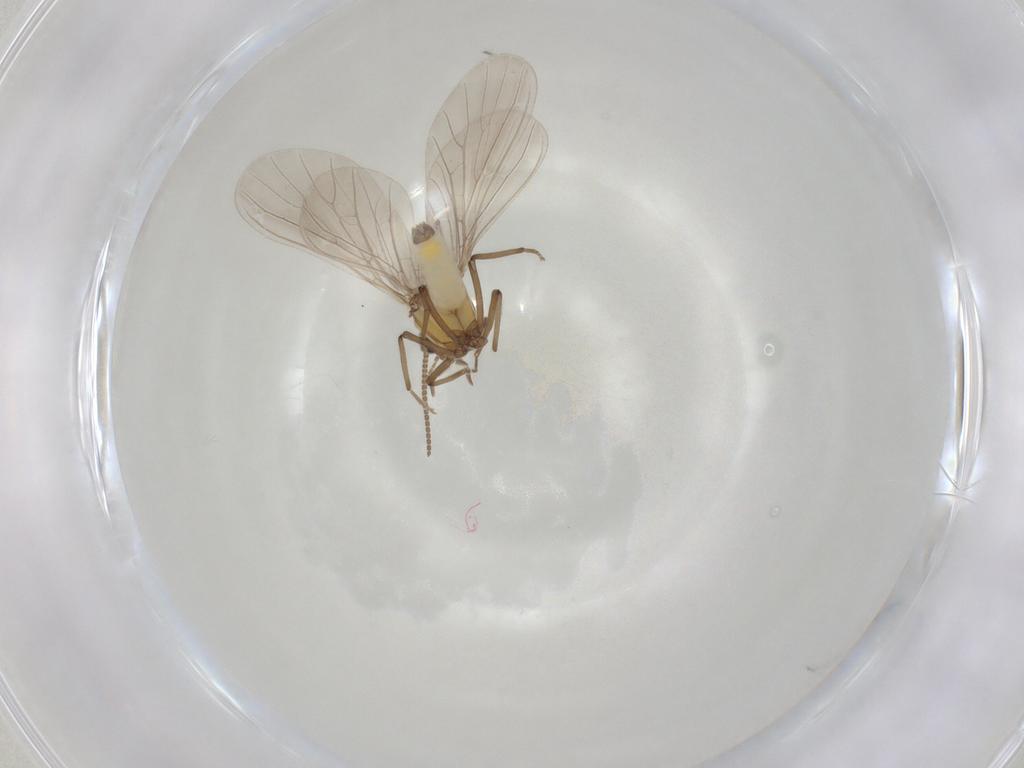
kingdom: Animalia
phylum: Arthropoda
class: Insecta
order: Neuroptera
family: Coniopterygidae
